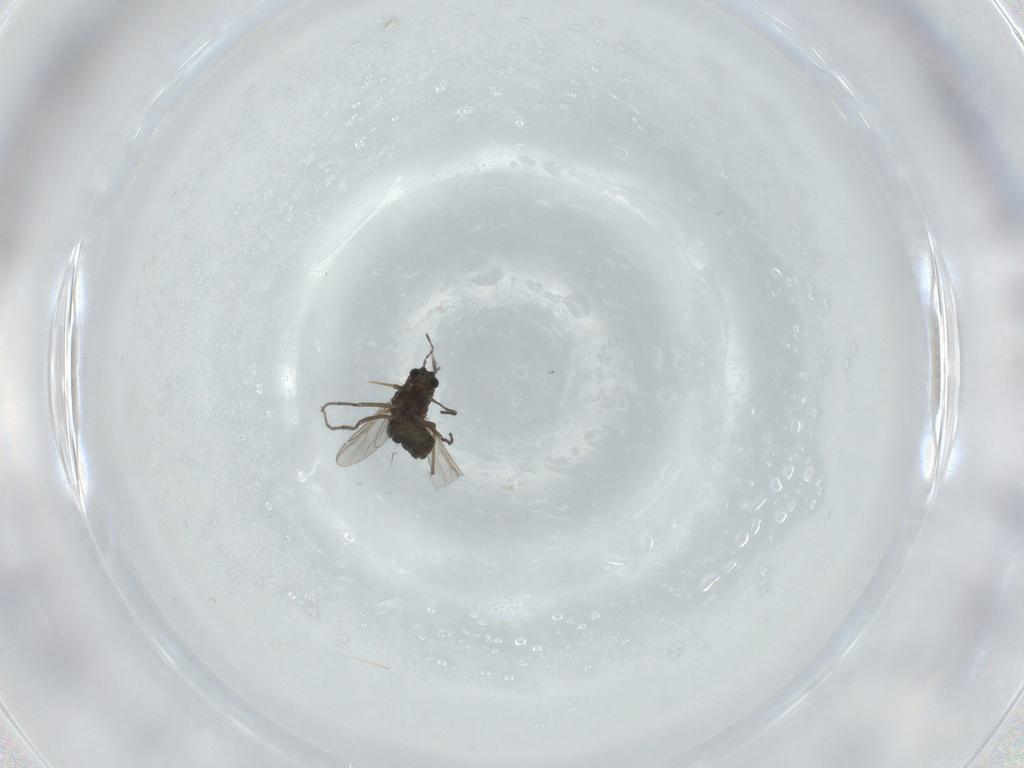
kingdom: Animalia
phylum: Arthropoda
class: Insecta
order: Diptera
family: Chironomidae
